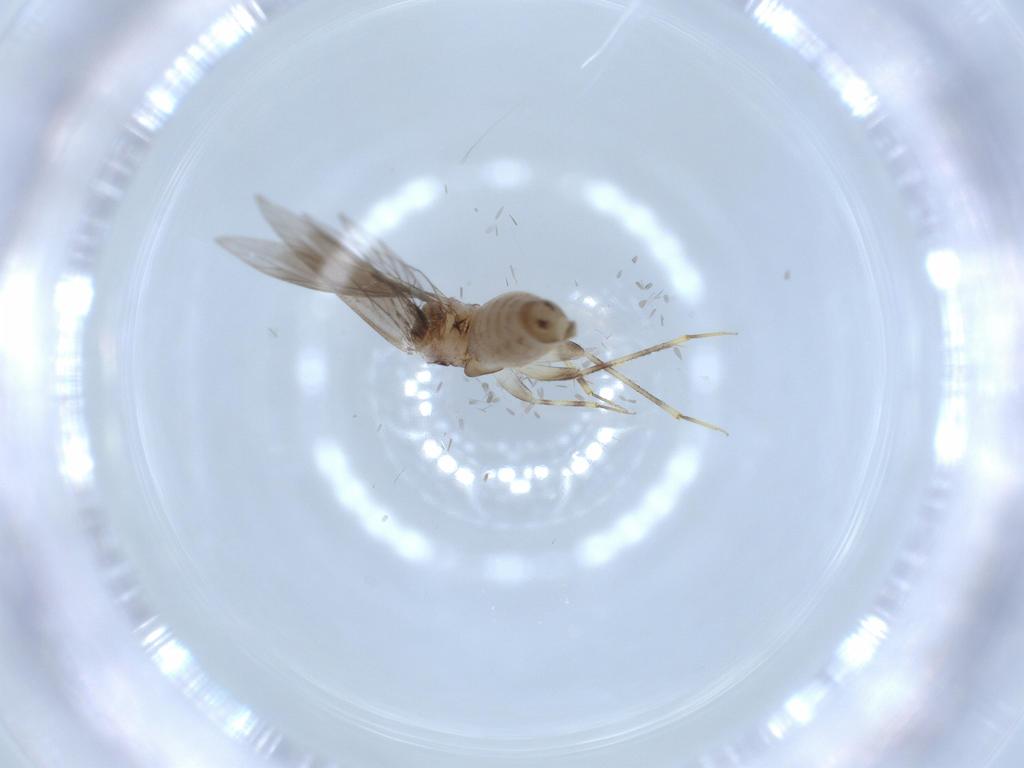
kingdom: Animalia
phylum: Arthropoda
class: Insecta
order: Psocodea
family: Lepidopsocidae
